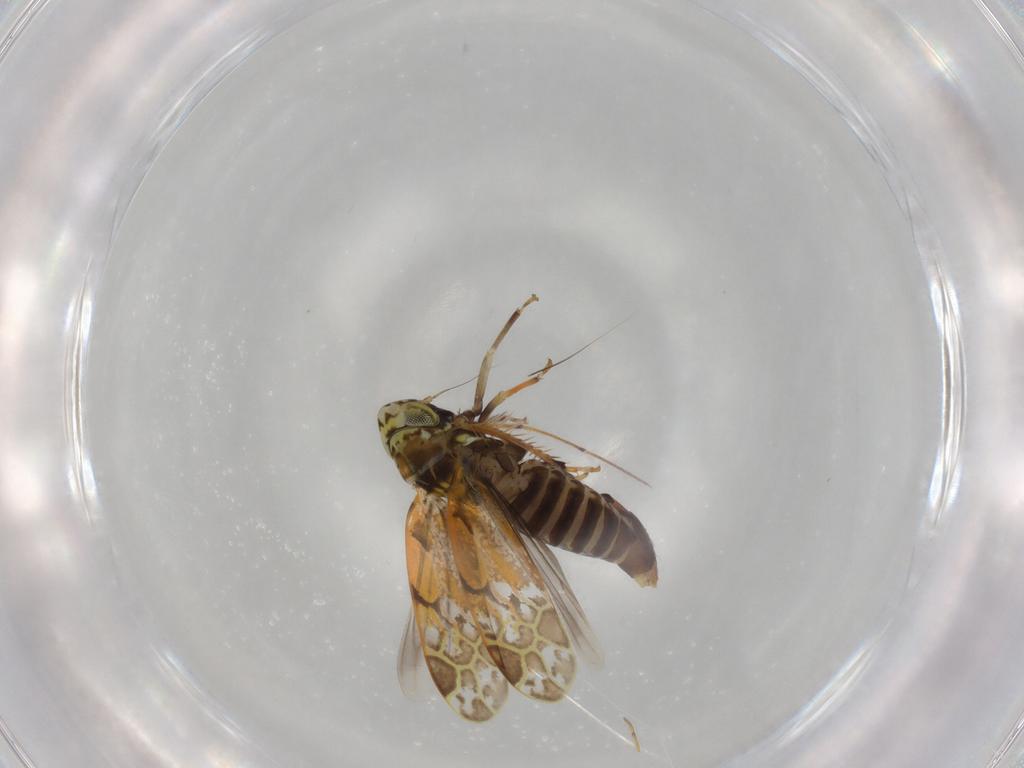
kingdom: Animalia
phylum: Arthropoda
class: Insecta
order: Hemiptera
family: Cicadellidae
